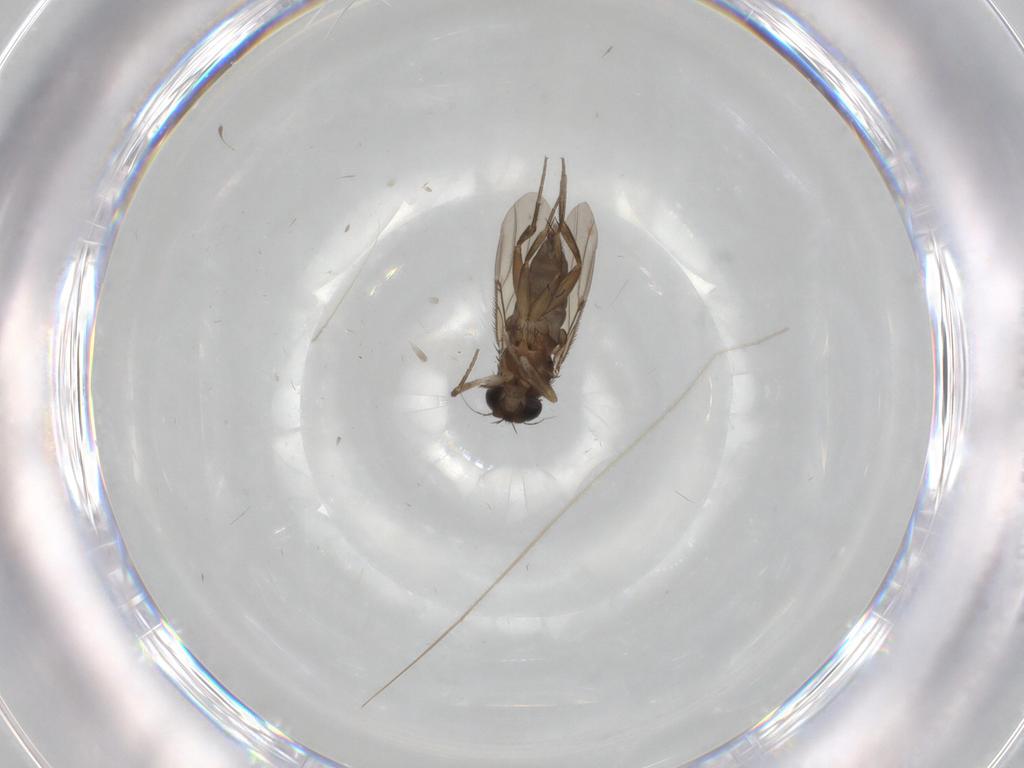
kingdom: Animalia
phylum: Arthropoda
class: Insecta
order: Diptera
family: Phoridae
